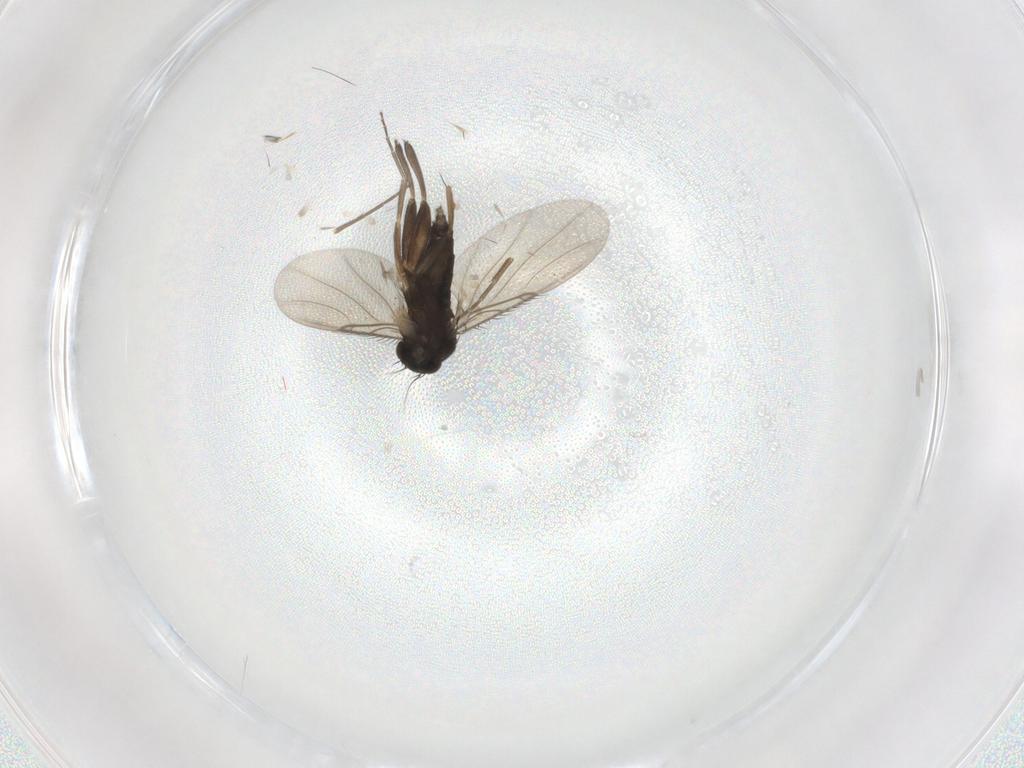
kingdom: Animalia
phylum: Arthropoda
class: Insecta
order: Diptera
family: Phoridae
